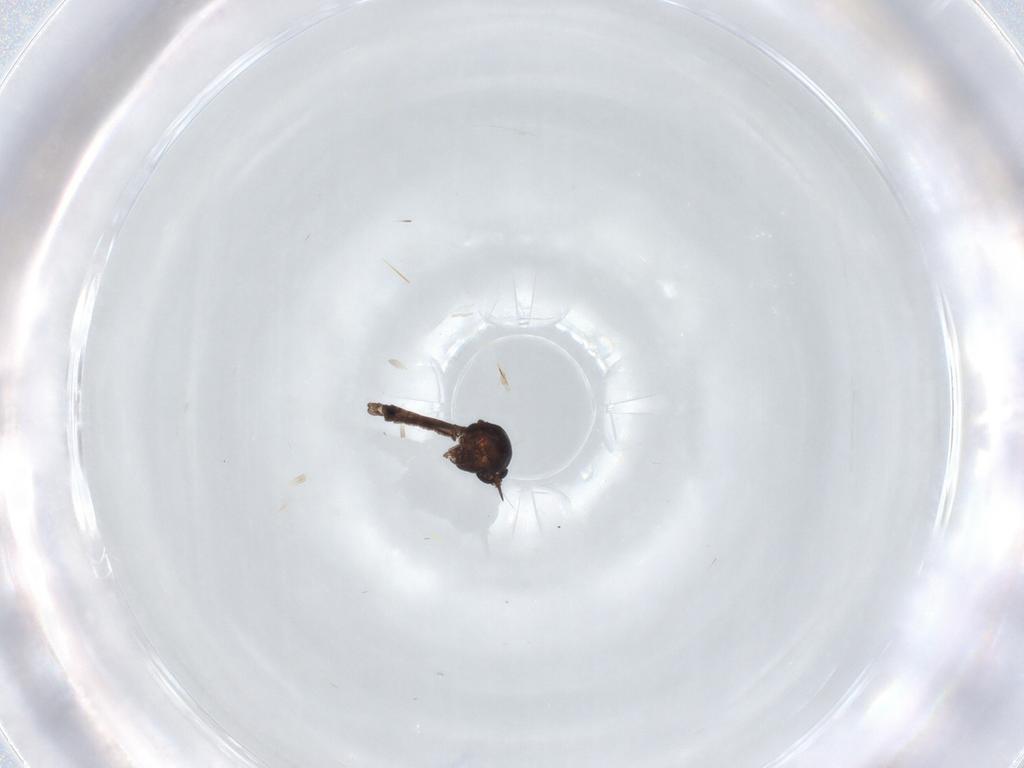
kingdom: Animalia
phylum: Arthropoda
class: Insecta
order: Diptera
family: Ceratopogonidae
